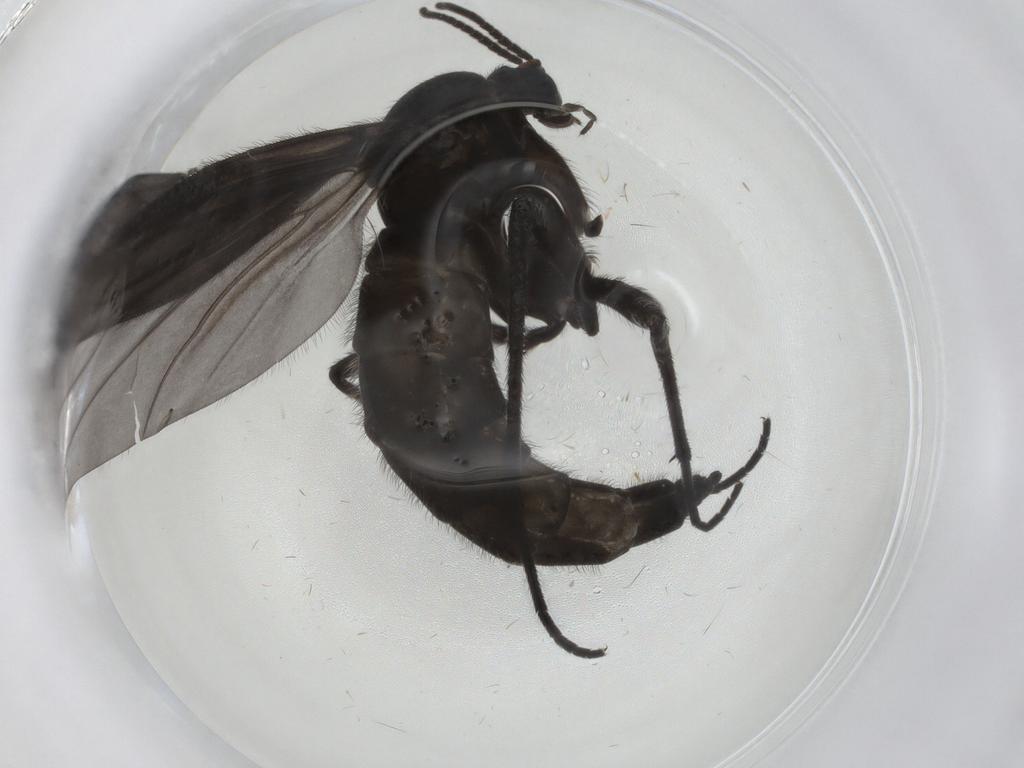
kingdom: Animalia
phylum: Arthropoda
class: Insecta
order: Diptera
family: Sciaridae
